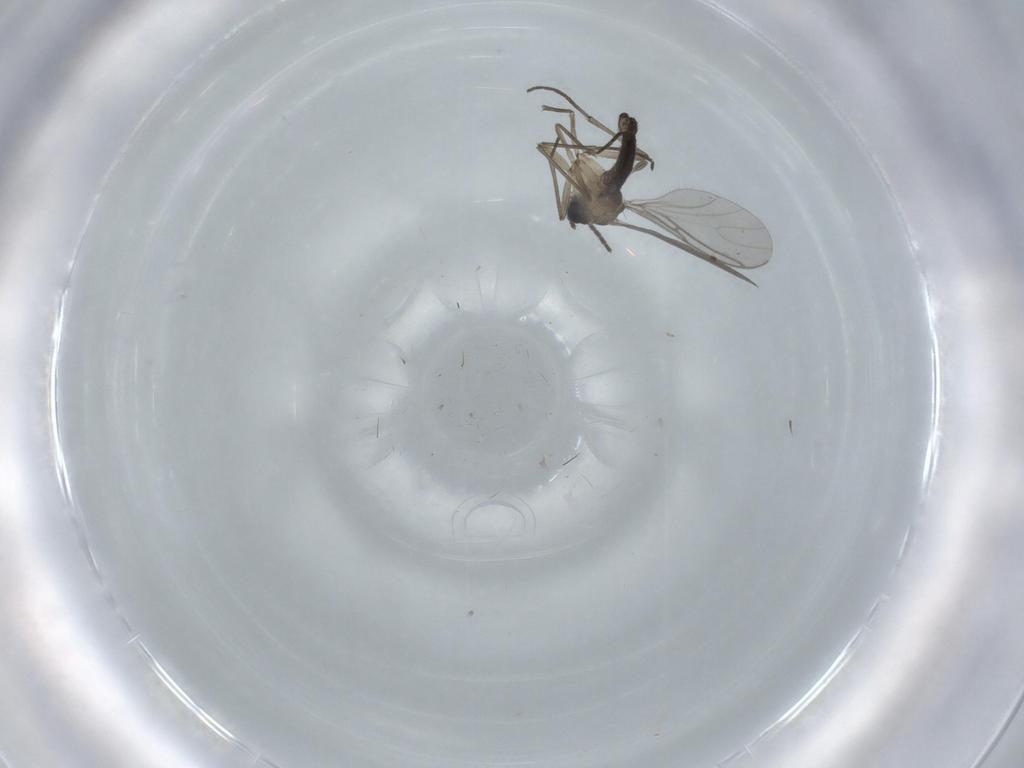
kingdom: Animalia
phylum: Arthropoda
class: Insecta
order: Diptera
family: Sciaridae
